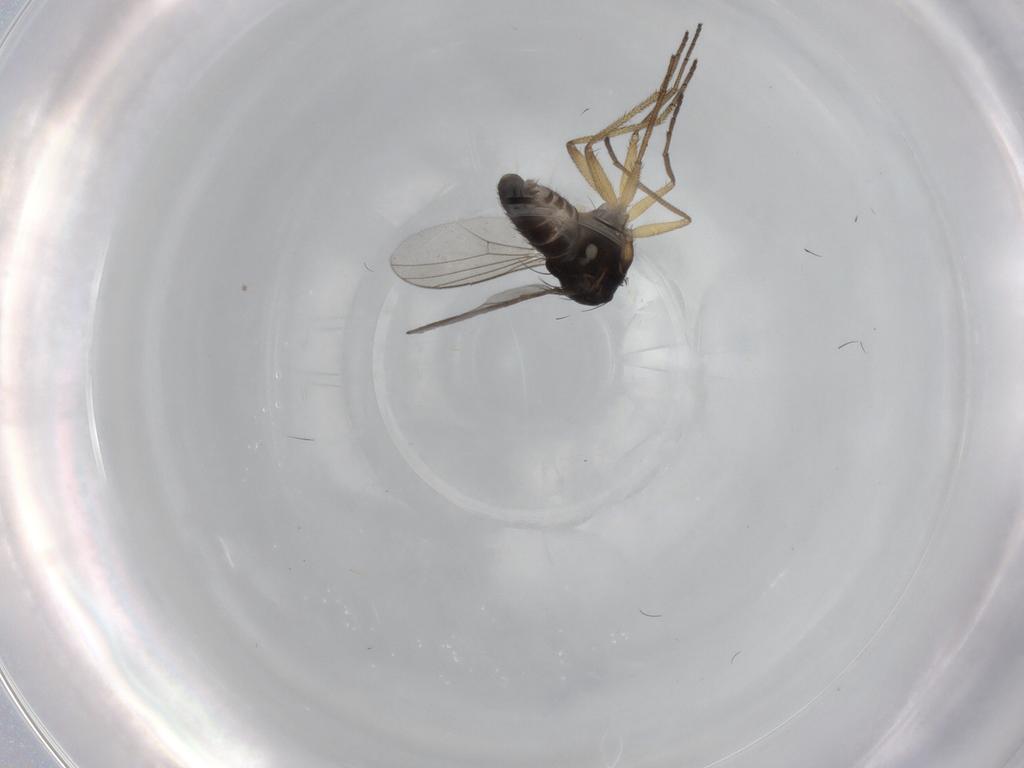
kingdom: Animalia
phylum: Arthropoda
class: Insecta
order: Diptera
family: Dolichopodidae
